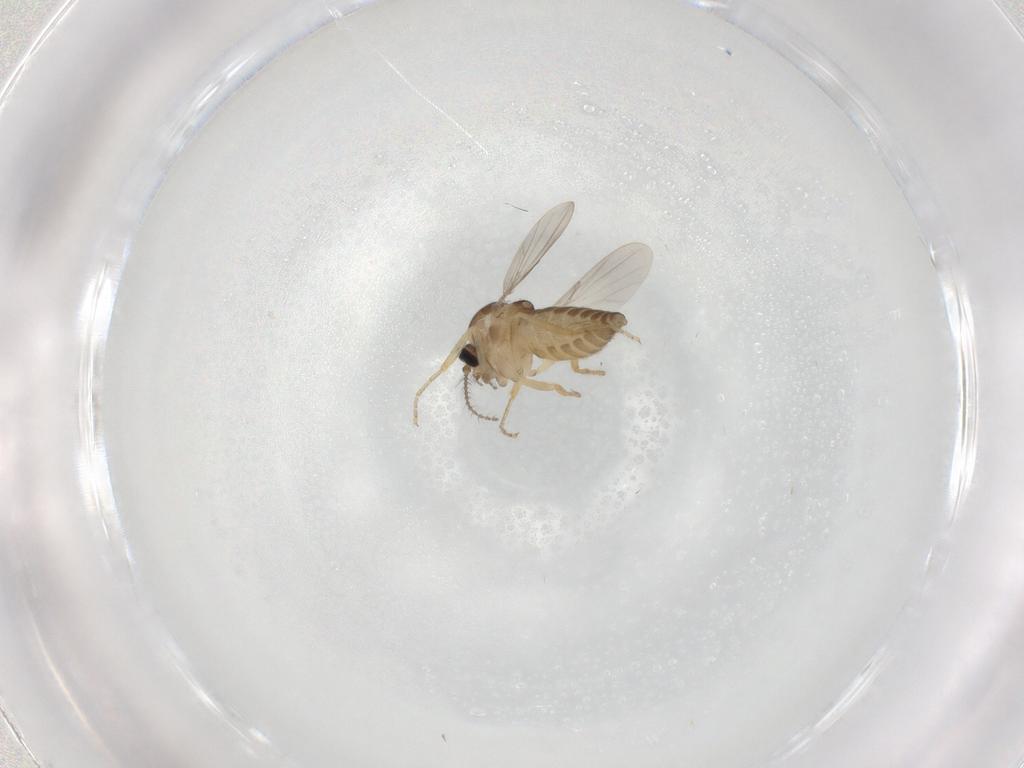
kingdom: Animalia
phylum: Arthropoda
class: Insecta
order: Diptera
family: Ceratopogonidae
